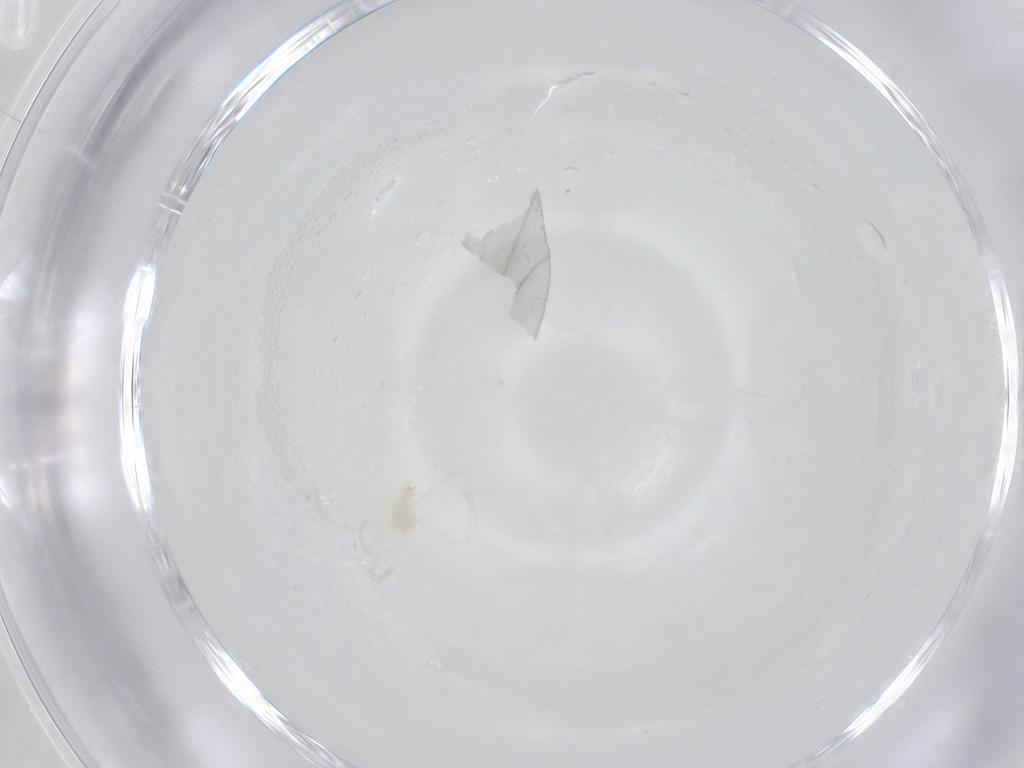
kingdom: Animalia
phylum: Arthropoda
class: Arachnida
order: Trombidiformes
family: Erythraeidae
